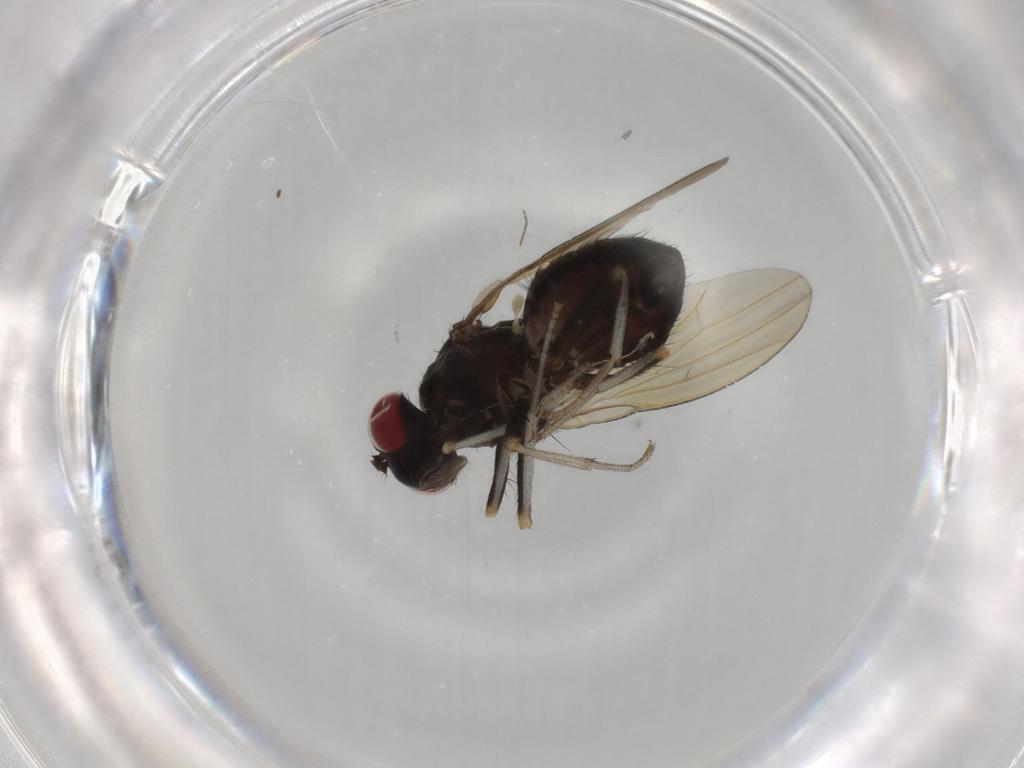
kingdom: Animalia
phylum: Arthropoda
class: Insecta
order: Diptera
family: Sciaridae
